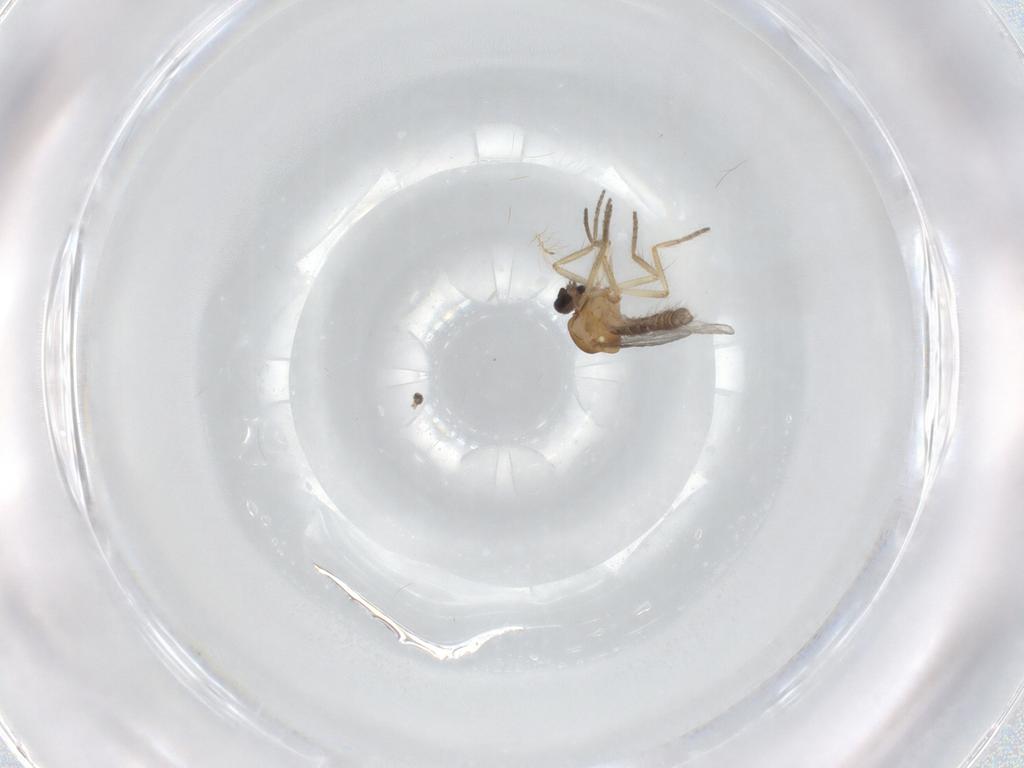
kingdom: Animalia
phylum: Arthropoda
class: Insecta
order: Diptera
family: Ceratopogonidae
